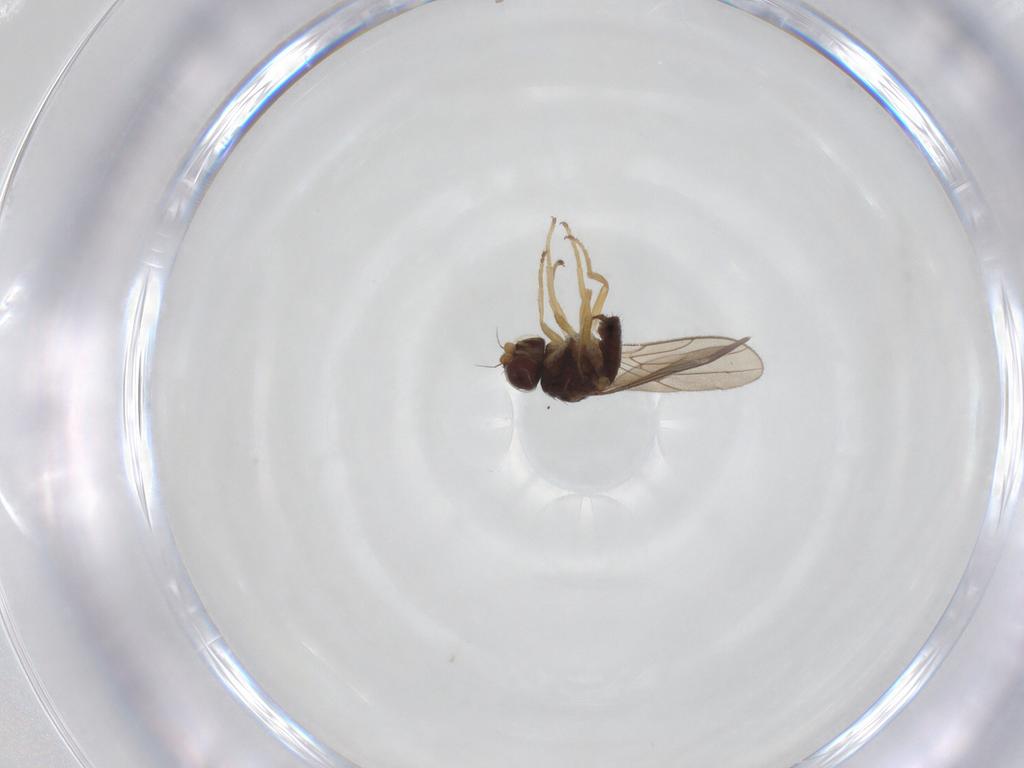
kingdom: Animalia
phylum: Arthropoda
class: Insecta
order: Diptera
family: Chloropidae
